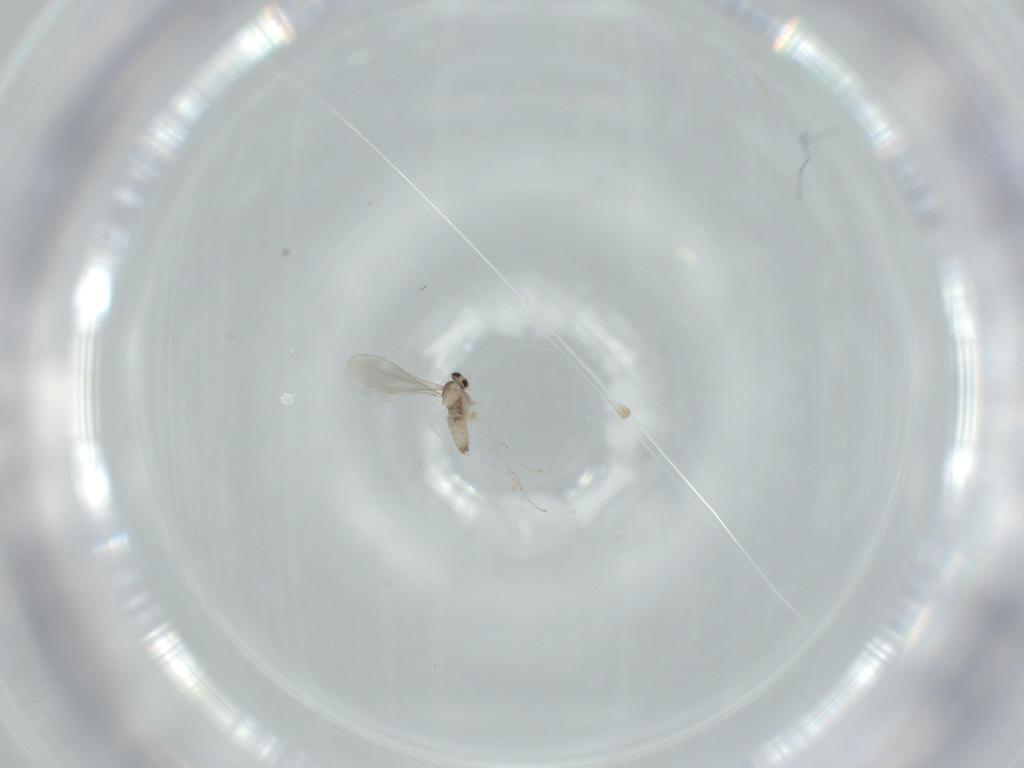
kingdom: Animalia
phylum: Arthropoda
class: Insecta
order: Diptera
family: Cecidomyiidae
